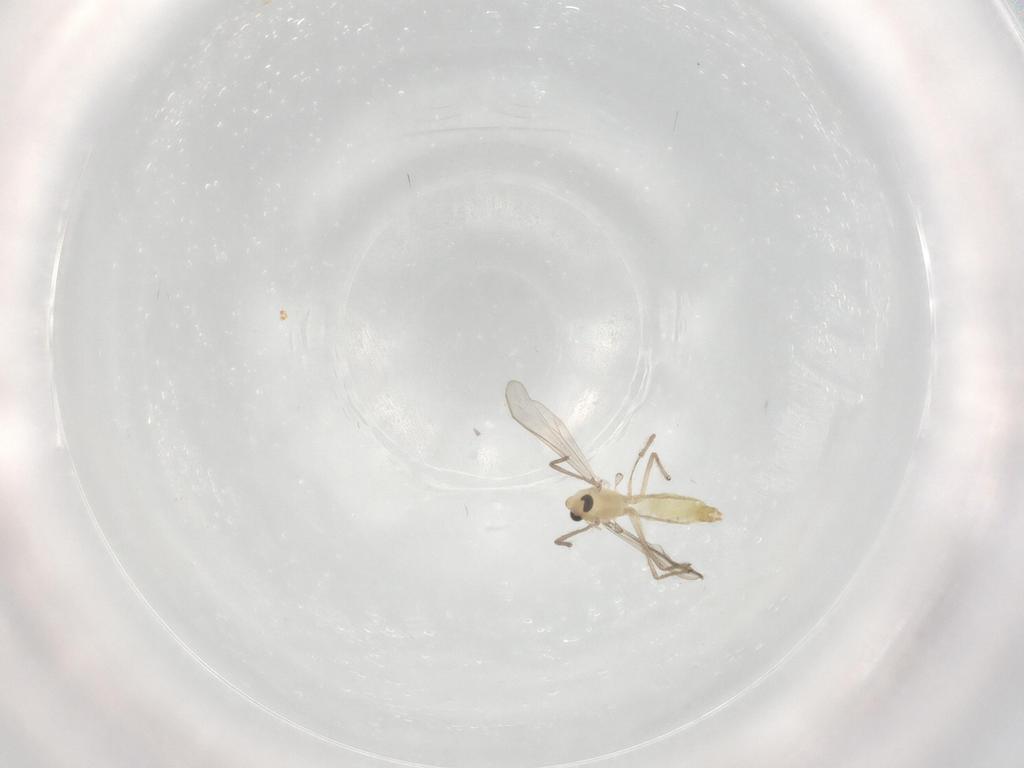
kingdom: Animalia
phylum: Arthropoda
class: Insecta
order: Diptera
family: Chironomidae
